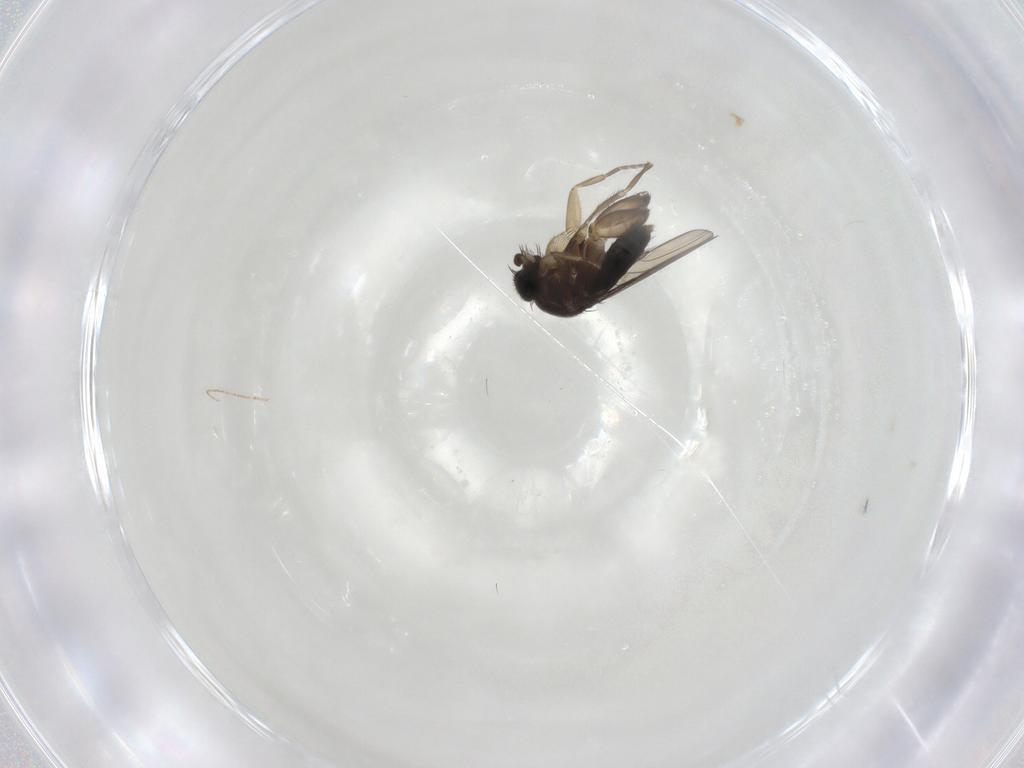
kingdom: Animalia
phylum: Arthropoda
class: Insecta
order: Diptera
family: Phoridae
